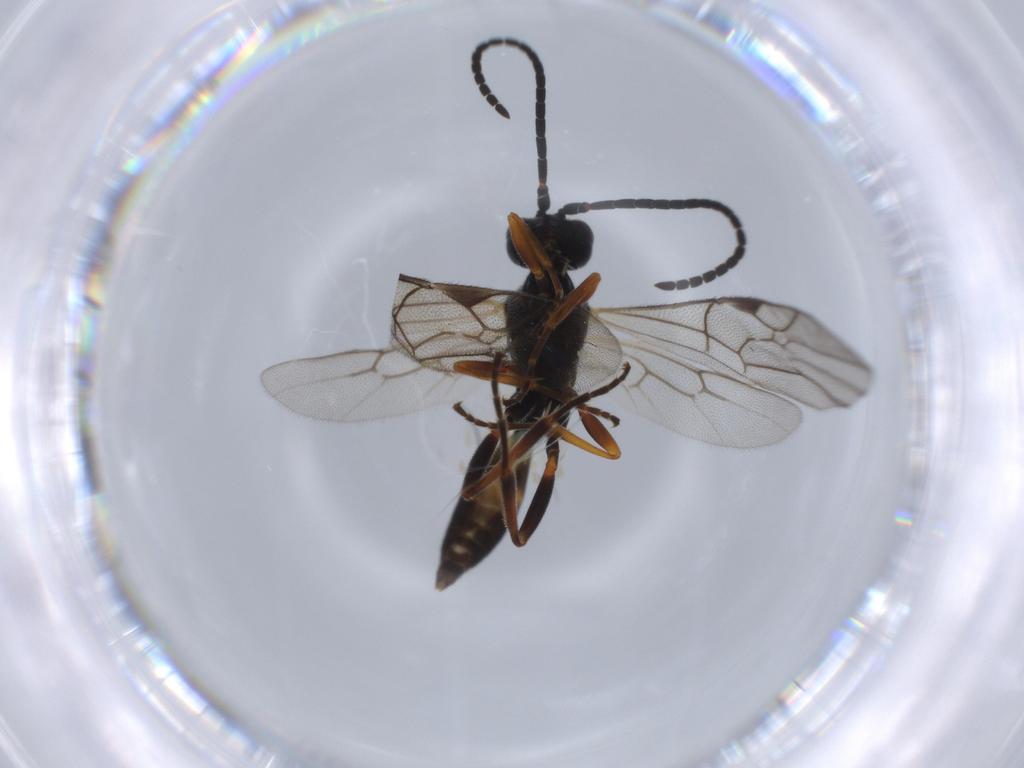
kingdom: Animalia
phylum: Arthropoda
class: Insecta
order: Hymenoptera
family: Ichneumonidae
